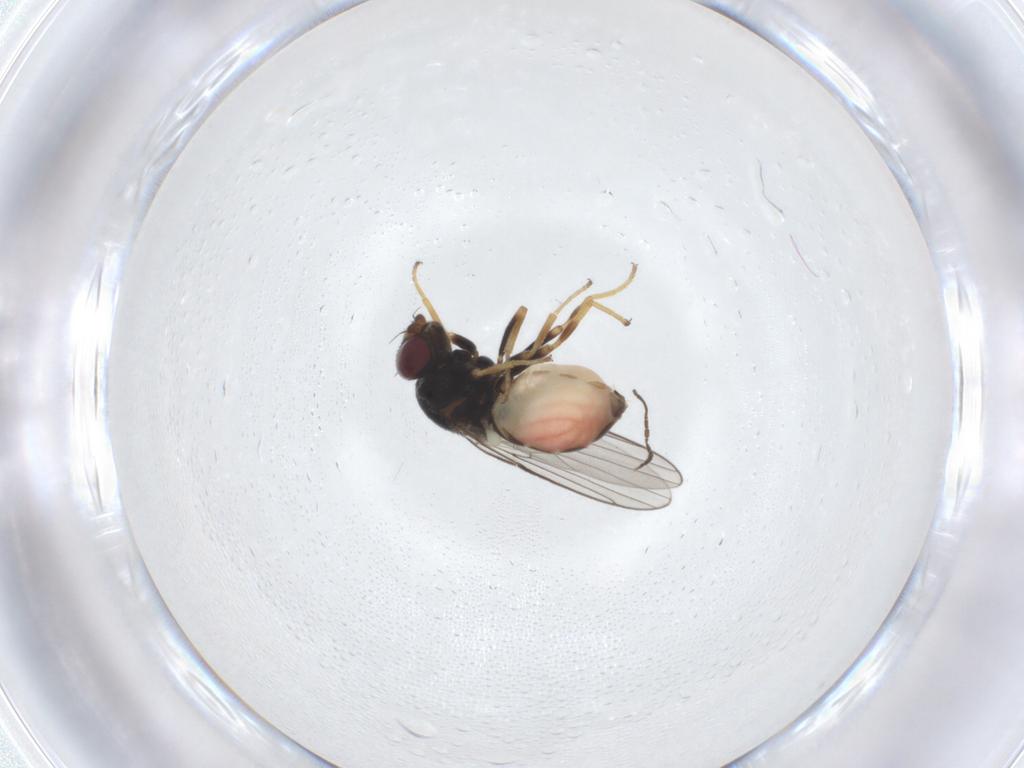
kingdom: Animalia
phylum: Arthropoda
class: Insecta
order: Diptera
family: Chloropidae
